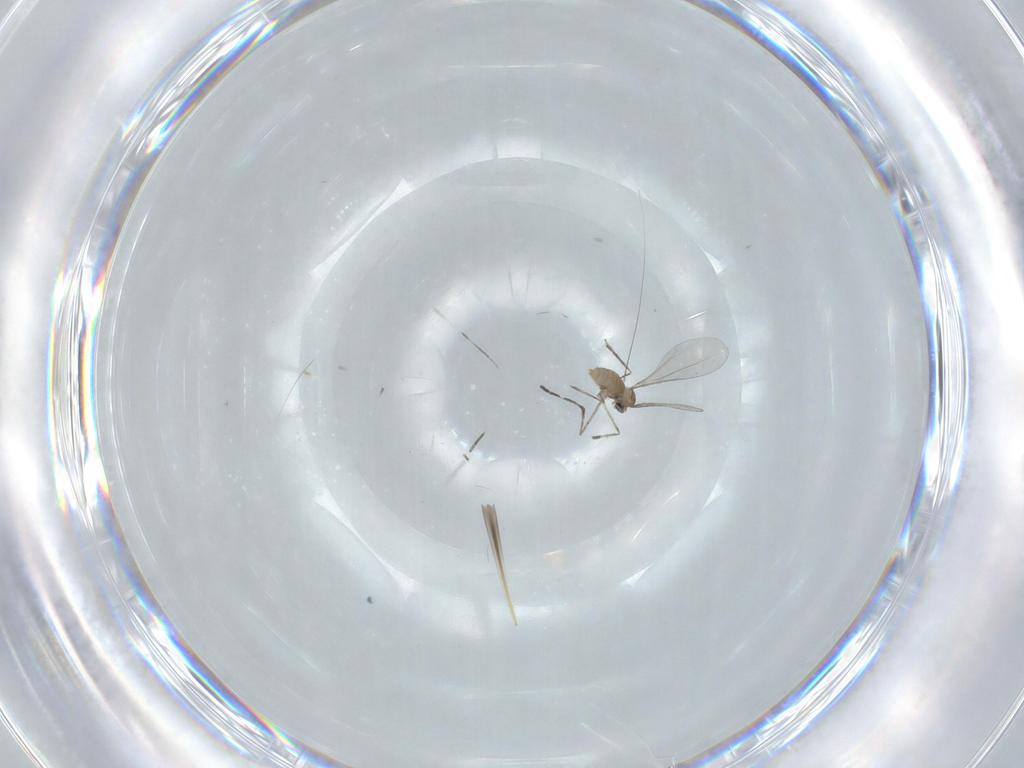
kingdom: Animalia
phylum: Arthropoda
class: Insecta
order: Diptera
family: Cecidomyiidae
